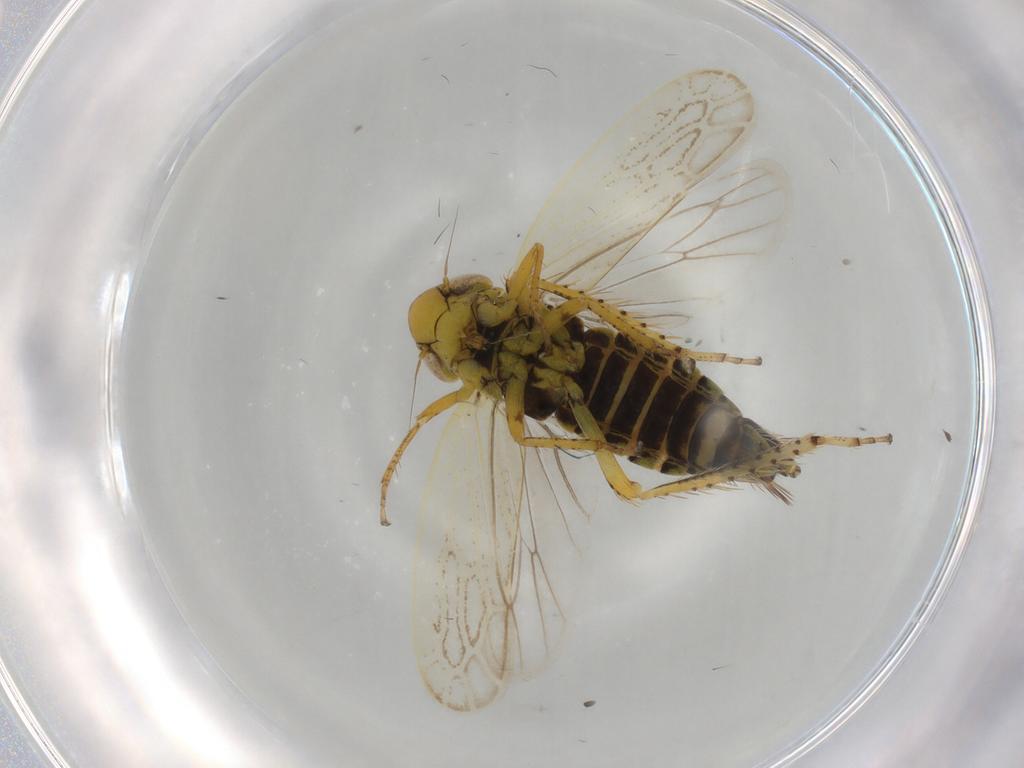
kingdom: Animalia
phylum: Arthropoda
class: Insecta
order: Hemiptera
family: Cicadellidae
